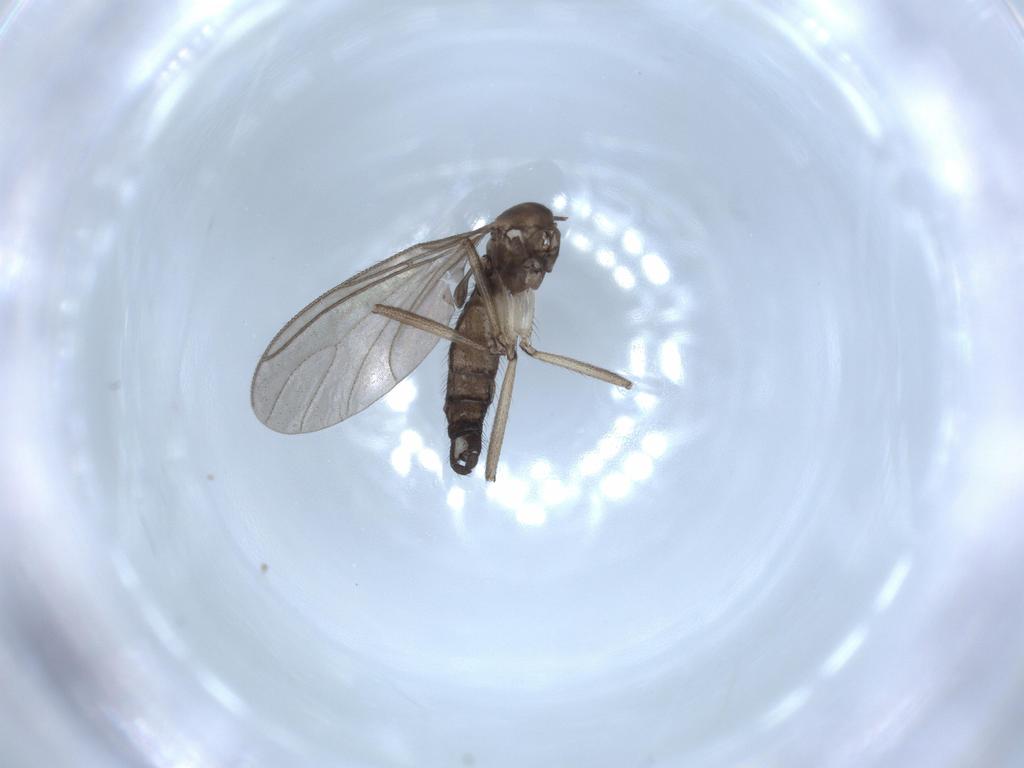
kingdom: Animalia
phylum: Arthropoda
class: Insecta
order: Diptera
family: Sciaridae
